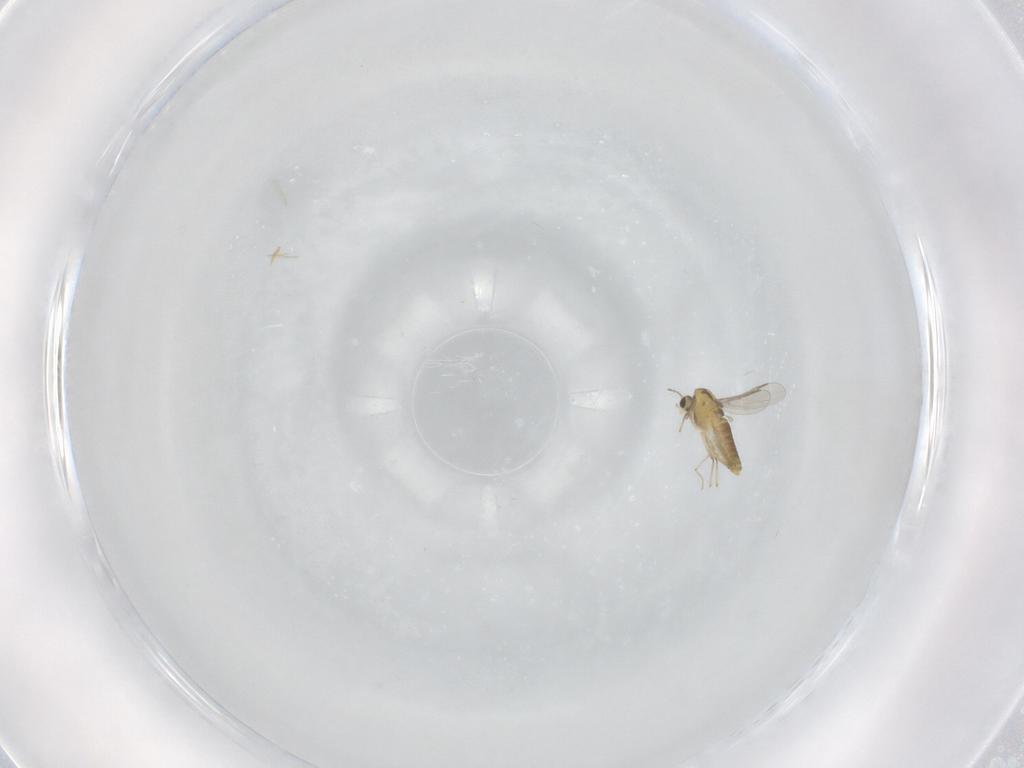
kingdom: Animalia
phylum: Arthropoda
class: Insecta
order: Diptera
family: Chironomidae
